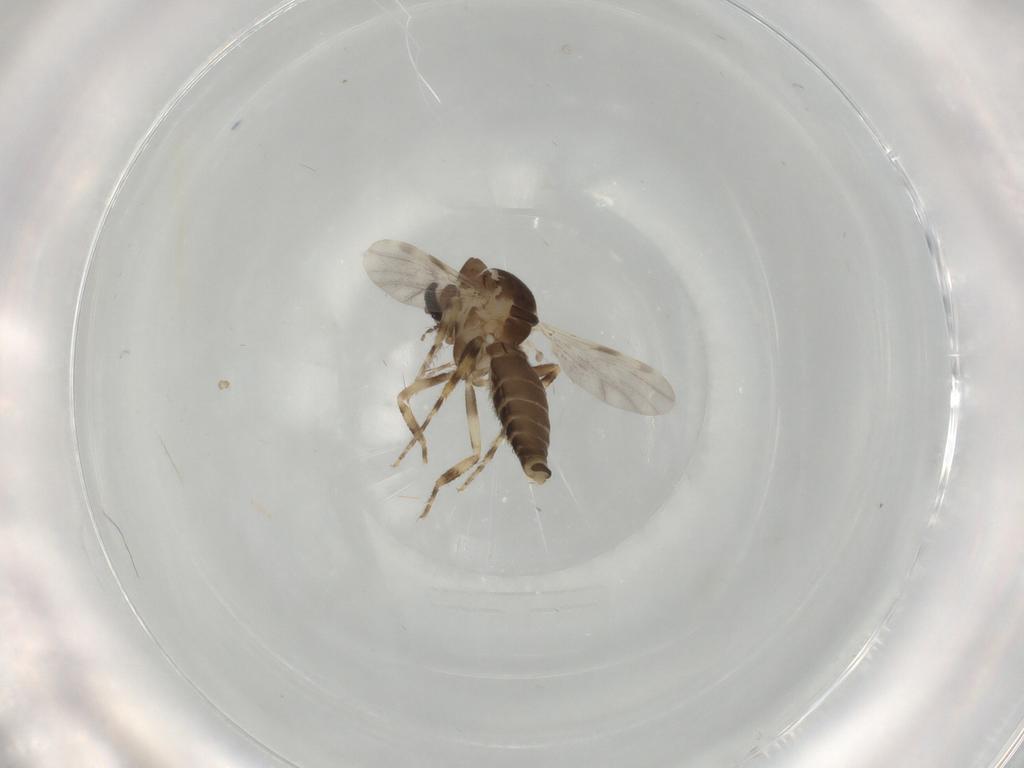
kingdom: Animalia
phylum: Arthropoda
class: Insecta
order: Diptera
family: Ceratopogonidae
